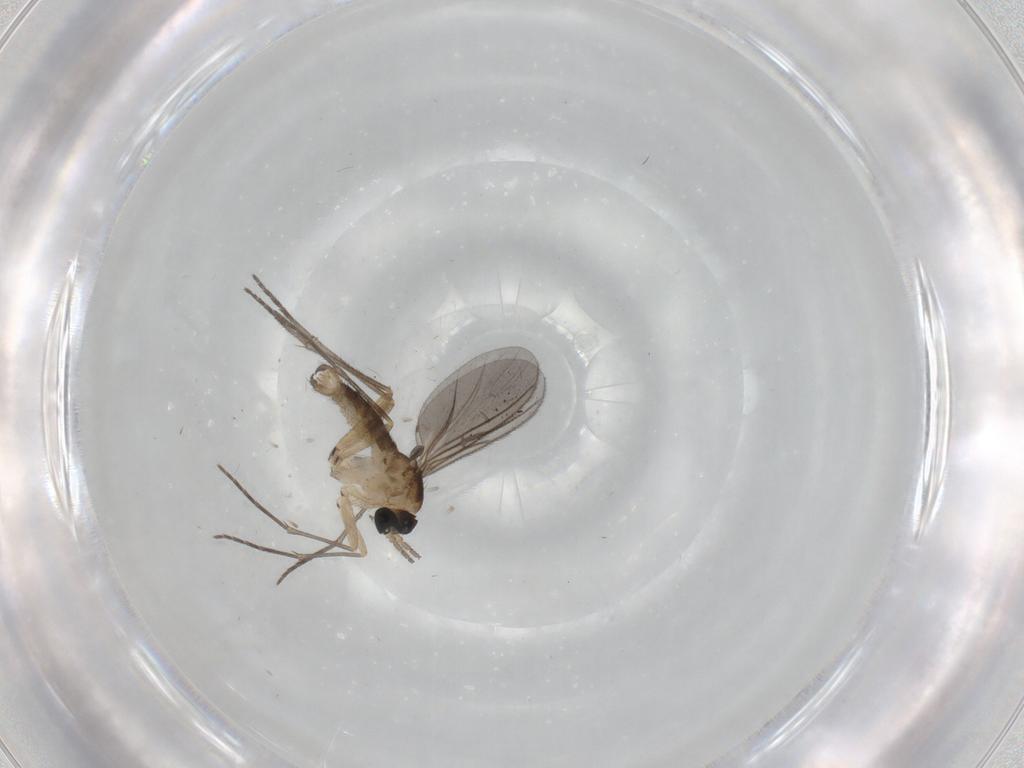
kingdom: Animalia
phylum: Arthropoda
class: Insecta
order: Diptera
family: Sciaridae
